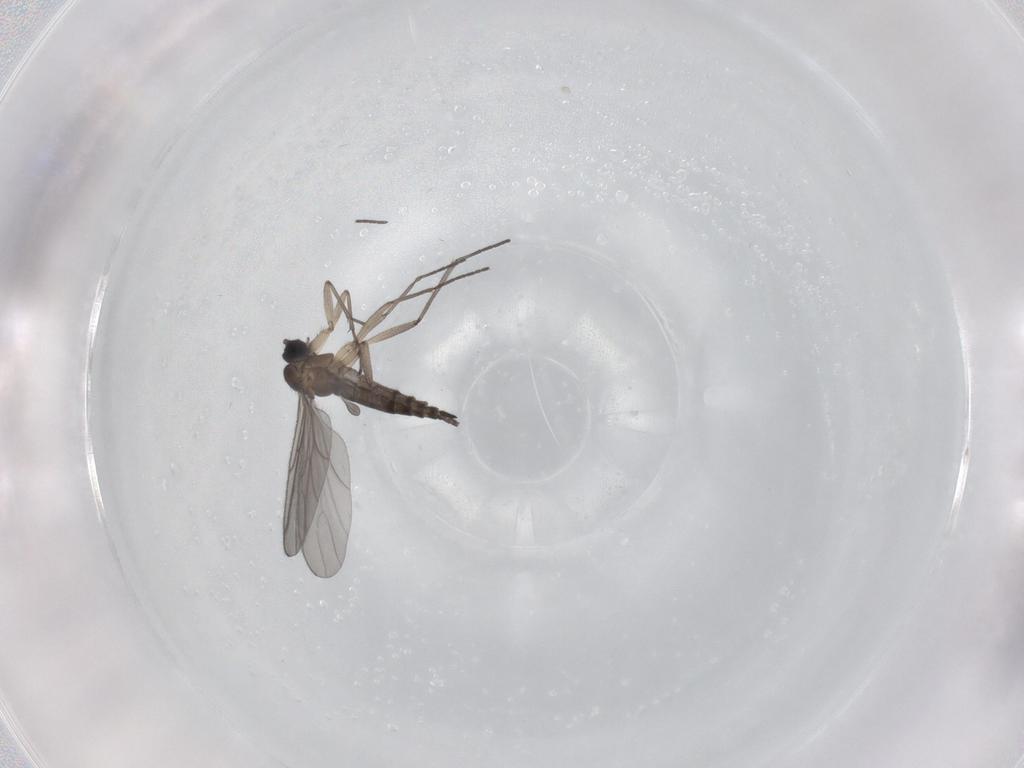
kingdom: Animalia
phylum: Arthropoda
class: Insecta
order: Diptera
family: Sciaridae
